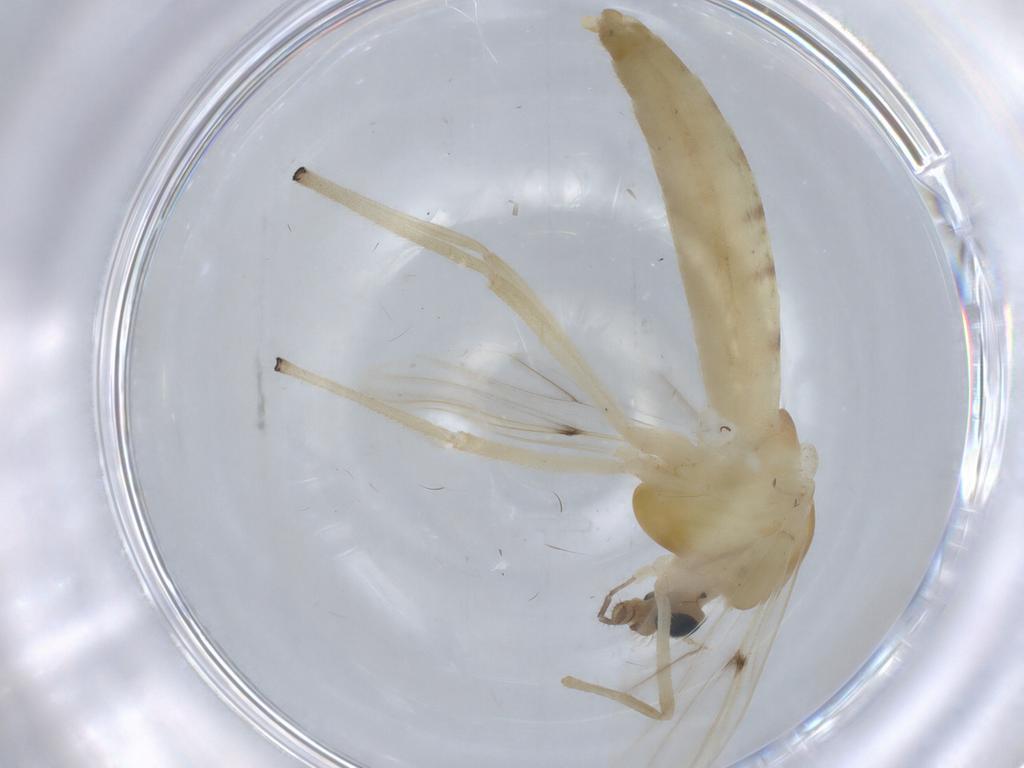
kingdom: Animalia
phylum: Arthropoda
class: Insecta
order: Diptera
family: Chironomidae
